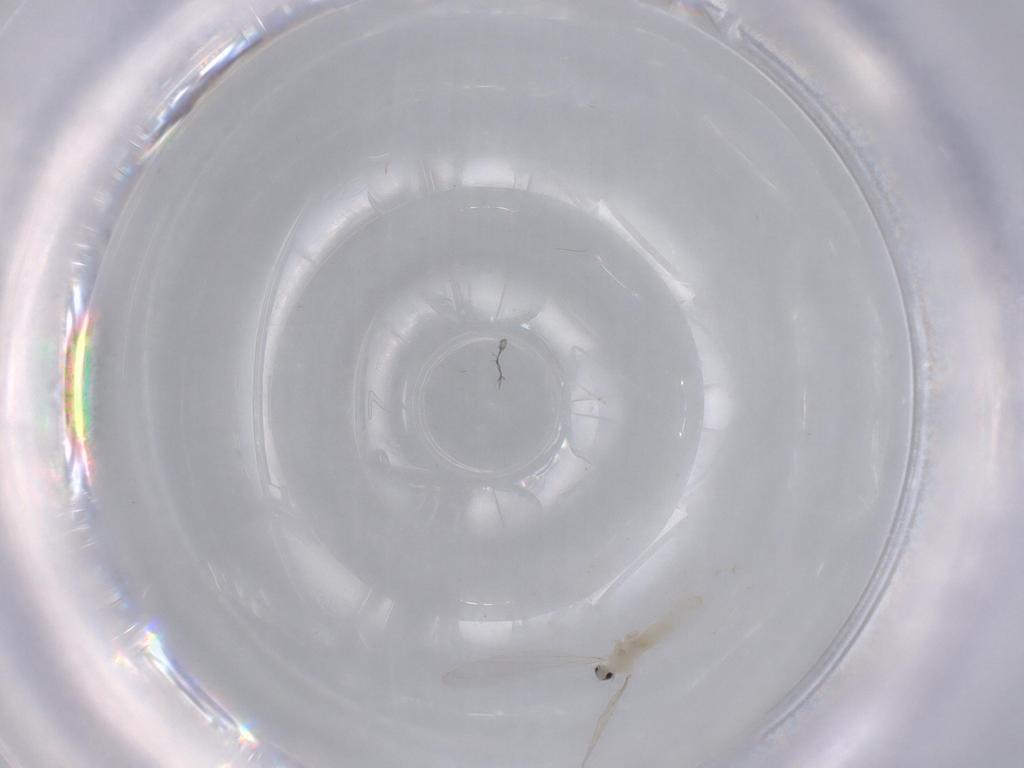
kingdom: Animalia
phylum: Arthropoda
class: Insecta
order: Diptera
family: Cecidomyiidae
